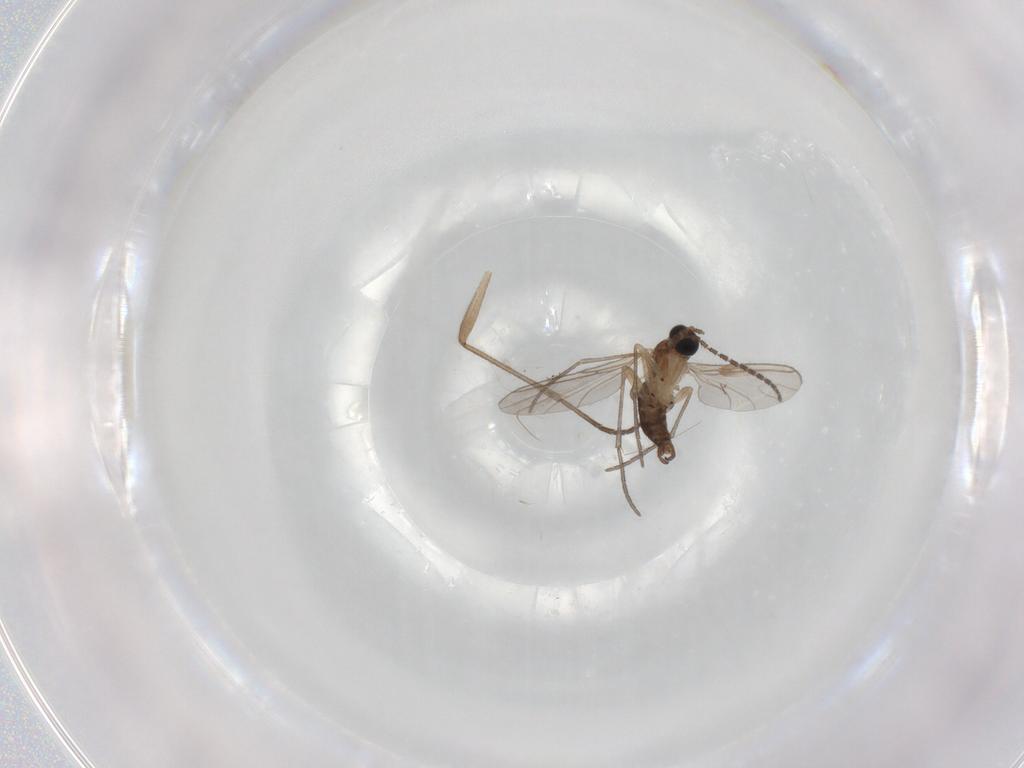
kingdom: Animalia
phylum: Arthropoda
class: Insecta
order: Diptera
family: Sciaridae
